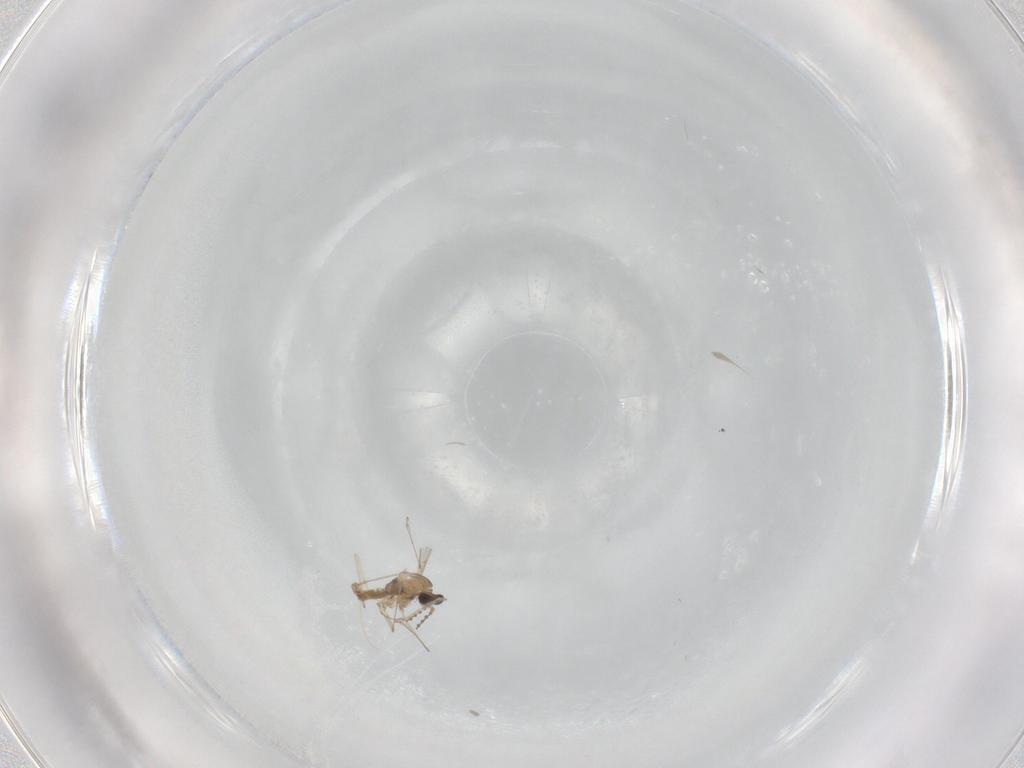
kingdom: Animalia
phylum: Arthropoda
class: Insecta
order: Diptera
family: Cecidomyiidae
